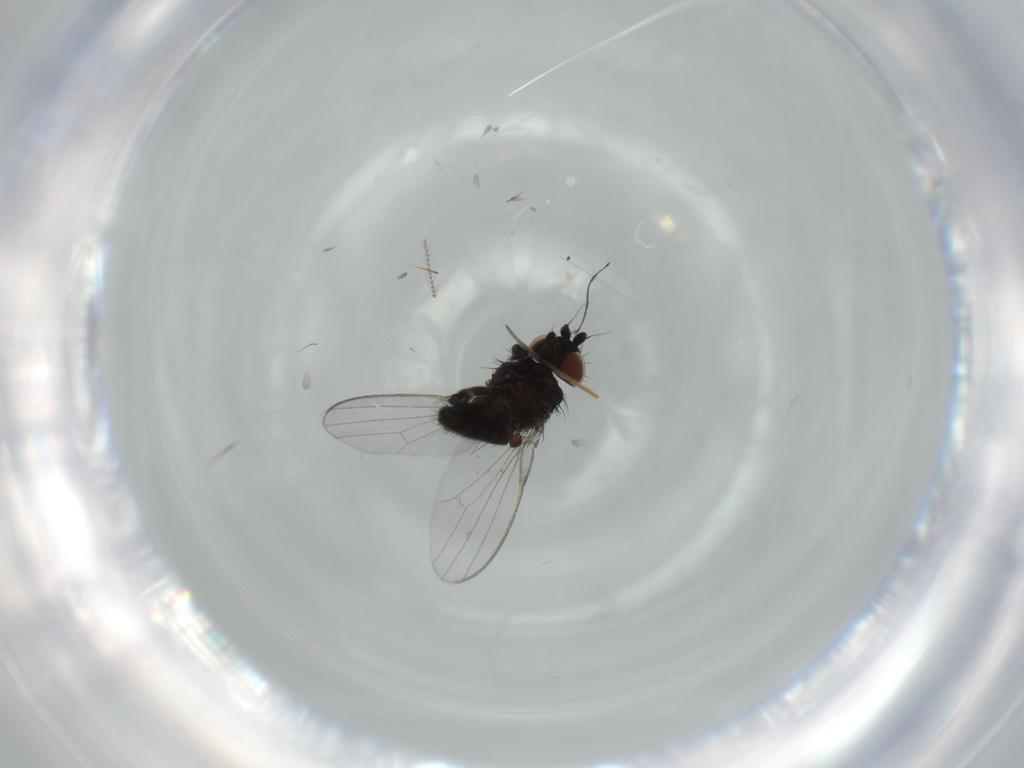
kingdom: Animalia
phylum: Arthropoda
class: Insecta
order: Diptera
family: Ceratopogonidae
